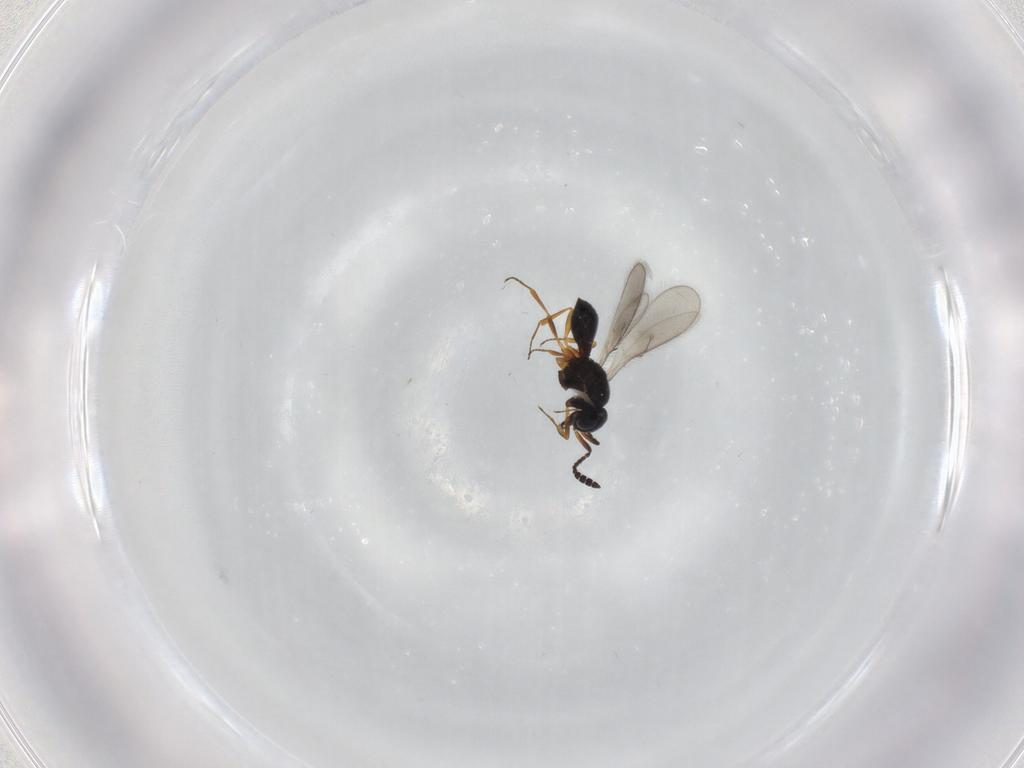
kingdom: Animalia
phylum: Arthropoda
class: Insecta
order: Hymenoptera
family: Scelionidae
